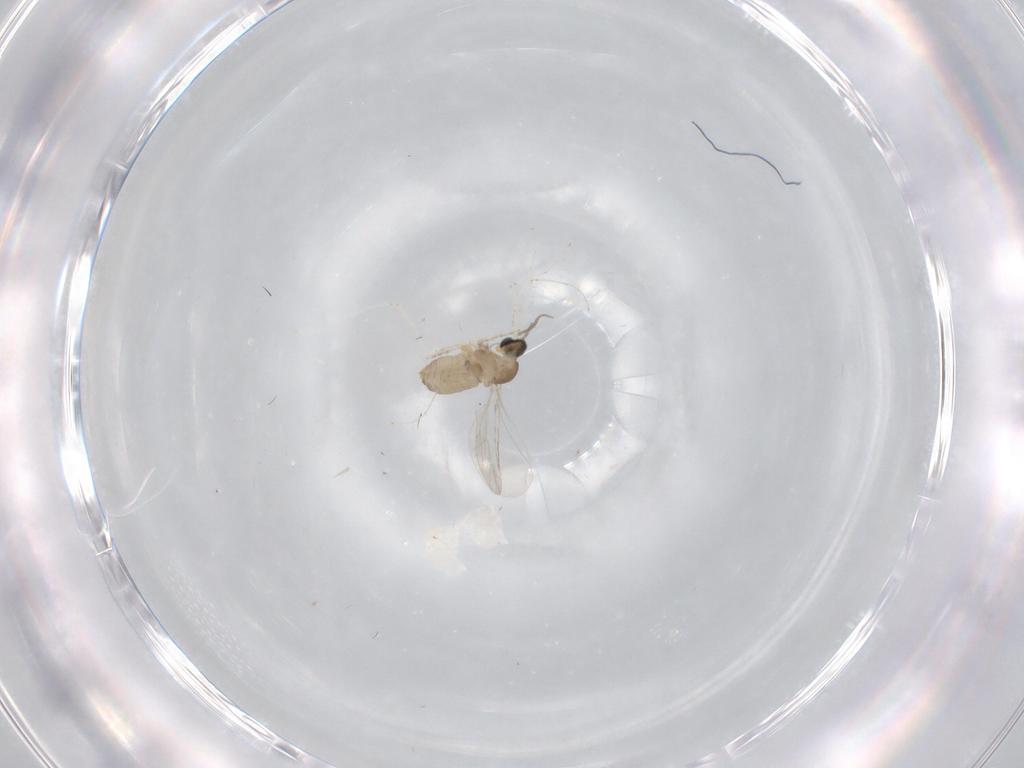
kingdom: Animalia
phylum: Arthropoda
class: Insecta
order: Diptera
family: Cecidomyiidae
